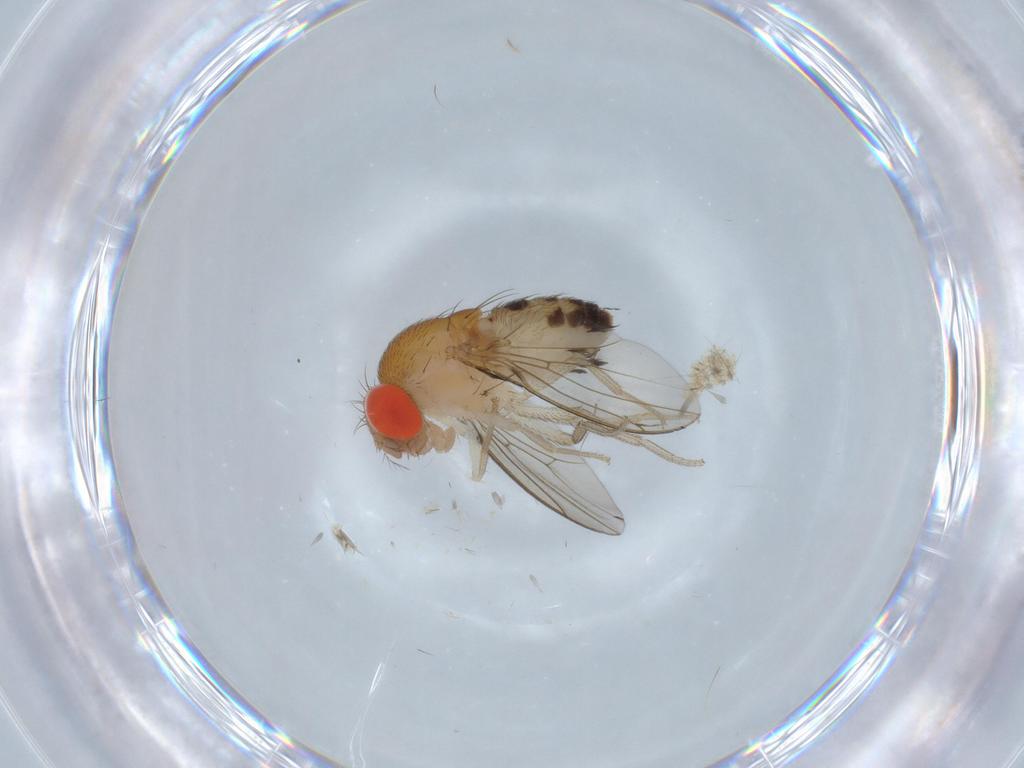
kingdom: Animalia
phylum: Arthropoda
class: Insecta
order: Diptera
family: Drosophilidae
